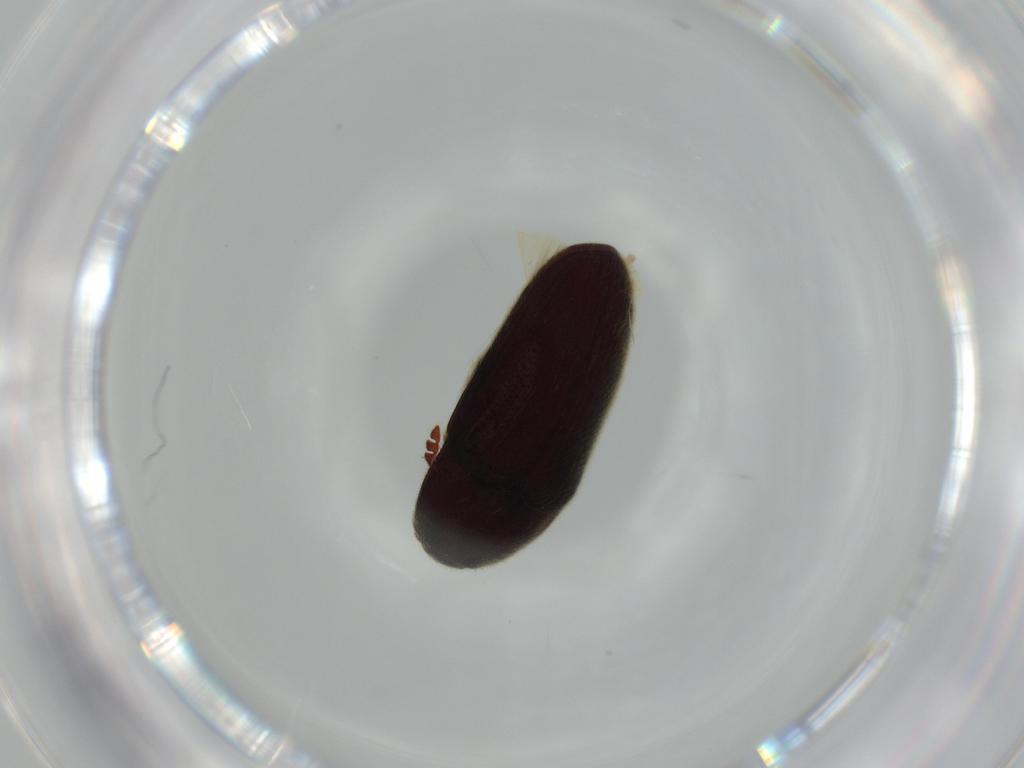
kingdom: Animalia
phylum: Arthropoda
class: Insecta
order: Coleoptera
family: Throscidae
